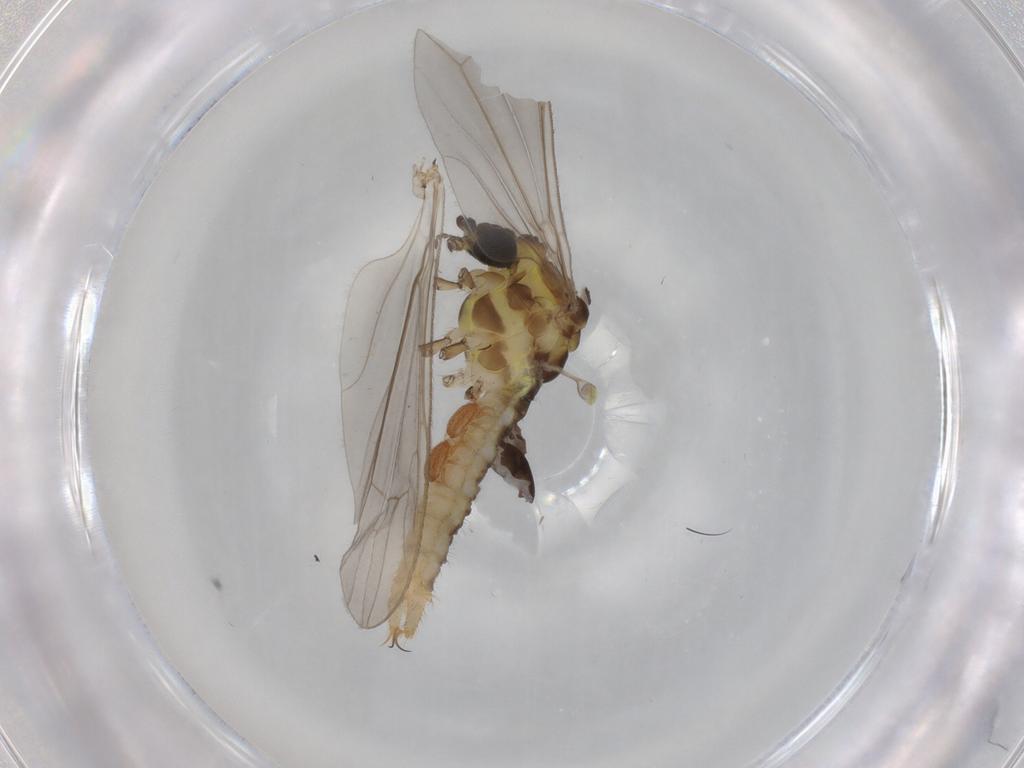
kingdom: Animalia
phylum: Arthropoda
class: Insecta
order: Diptera
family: Limoniidae
